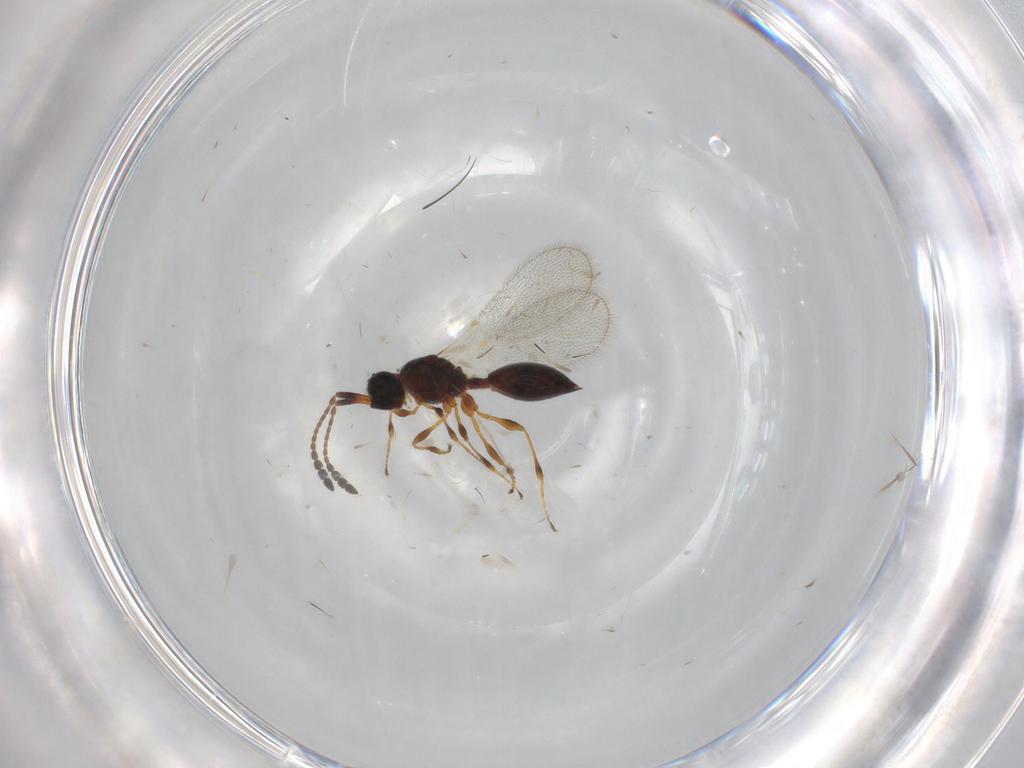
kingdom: Animalia
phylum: Arthropoda
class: Insecta
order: Hymenoptera
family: Diapriidae
